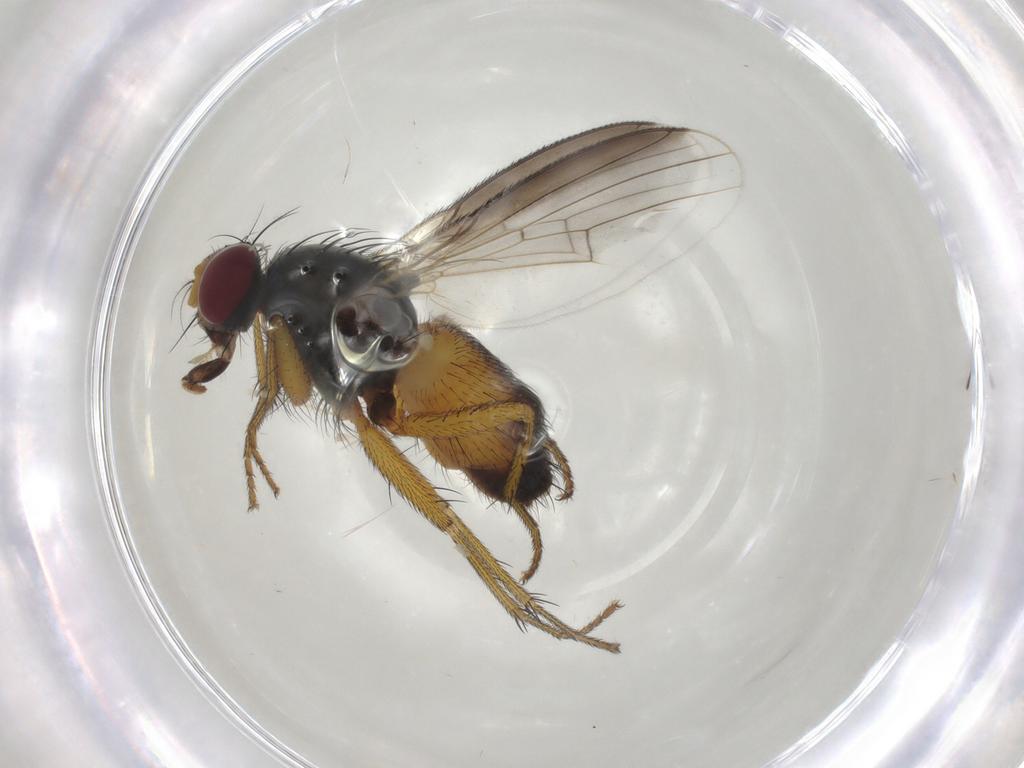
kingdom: Animalia
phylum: Arthropoda
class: Insecta
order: Diptera
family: Muscidae
